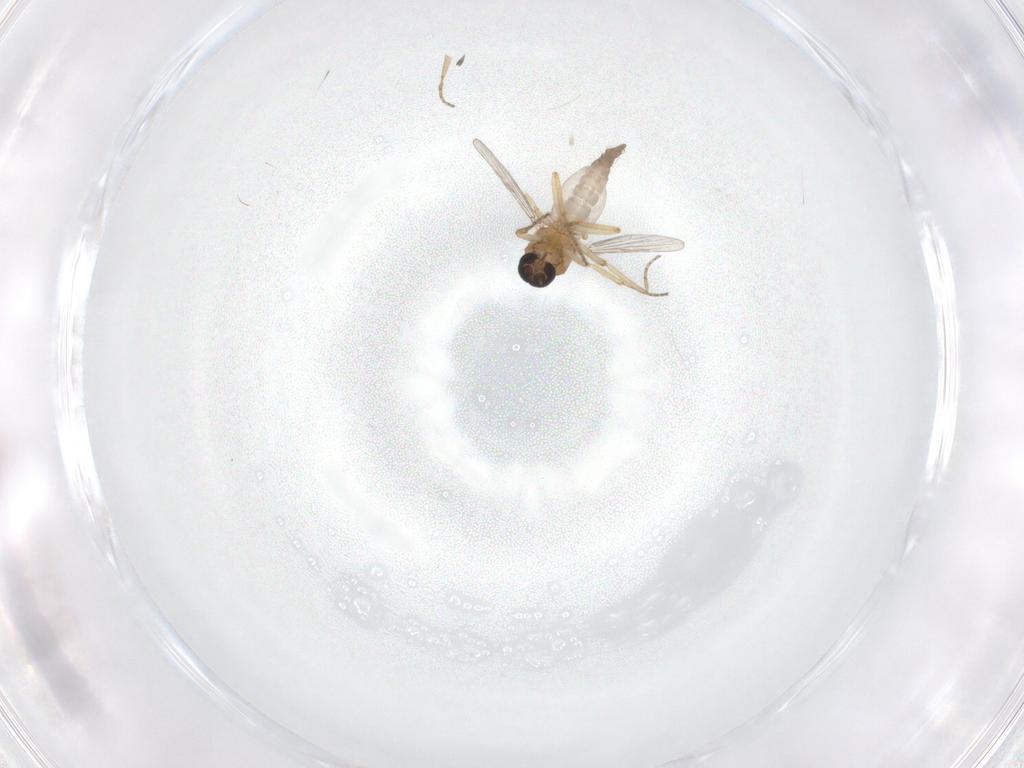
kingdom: Animalia
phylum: Arthropoda
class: Insecta
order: Diptera
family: Ceratopogonidae
